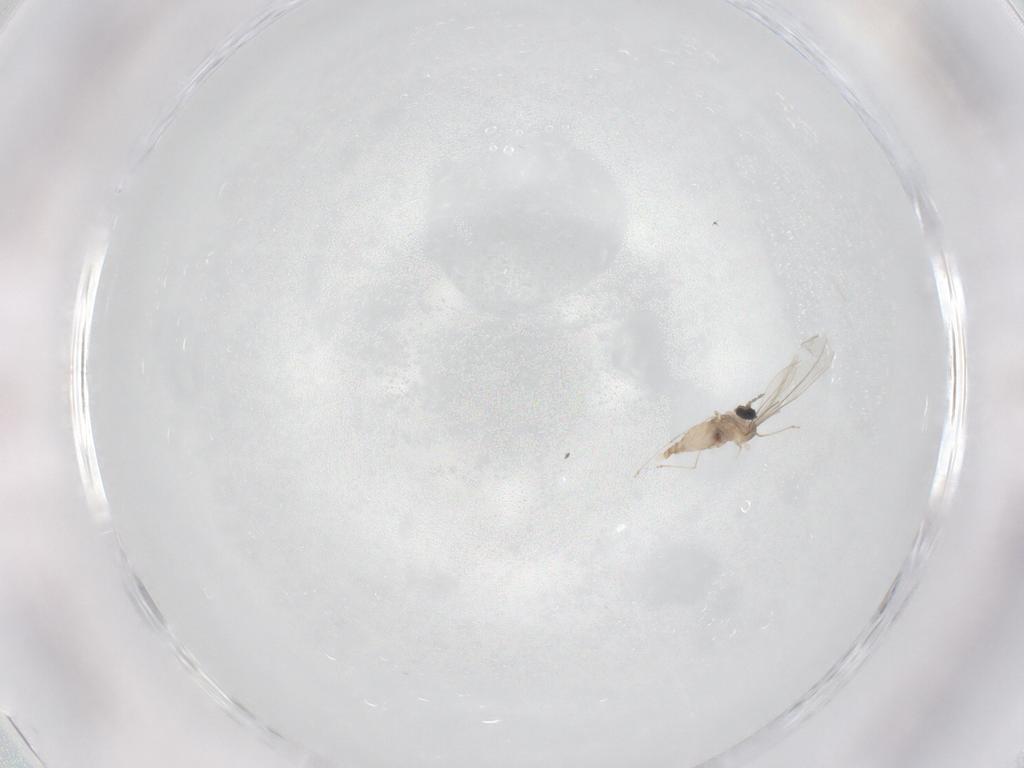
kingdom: Animalia
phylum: Arthropoda
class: Insecta
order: Diptera
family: Cecidomyiidae
